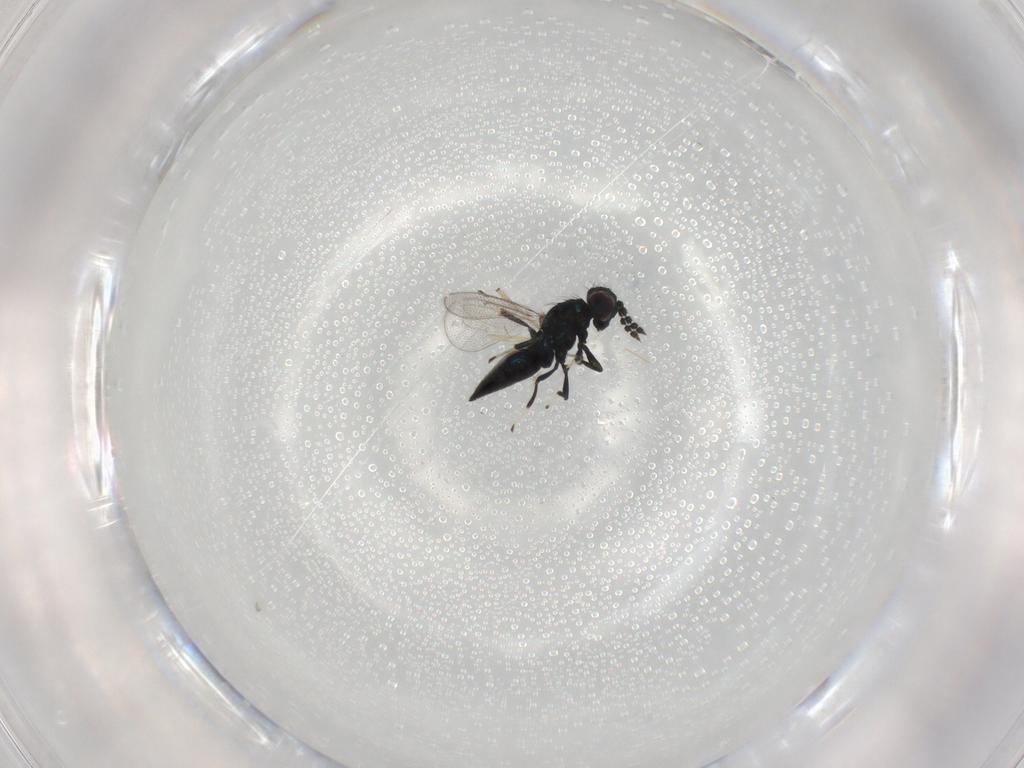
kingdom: Animalia
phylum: Arthropoda
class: Insecta
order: Hymenoptera
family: Eulophidae
